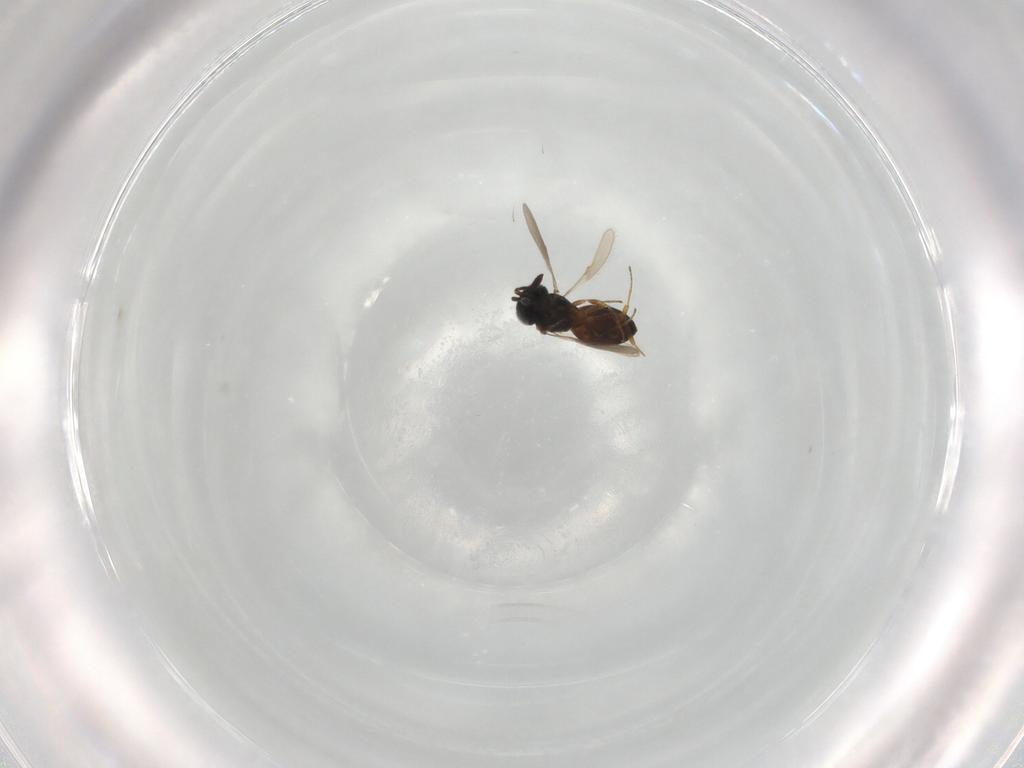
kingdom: Animalia
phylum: Arthropoda
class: Insecta
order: Hymenoptera
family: Scelionidae
